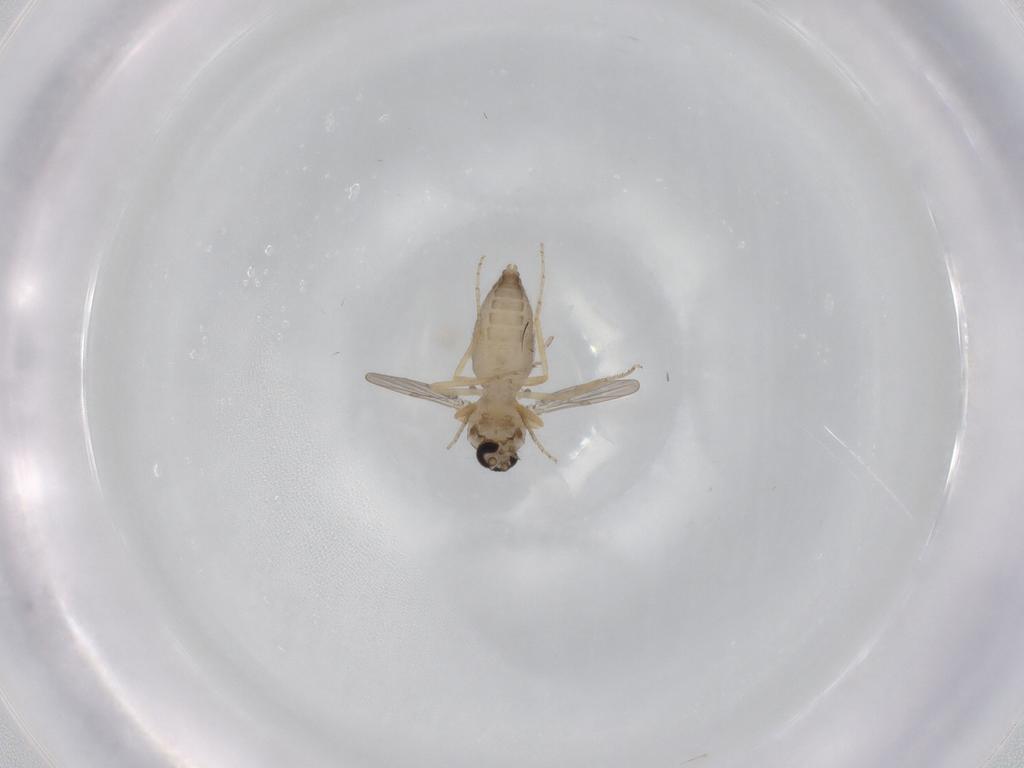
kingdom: Animalia
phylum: Arthropoda
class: Insecta
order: Diptera
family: Ceratopogonidae
